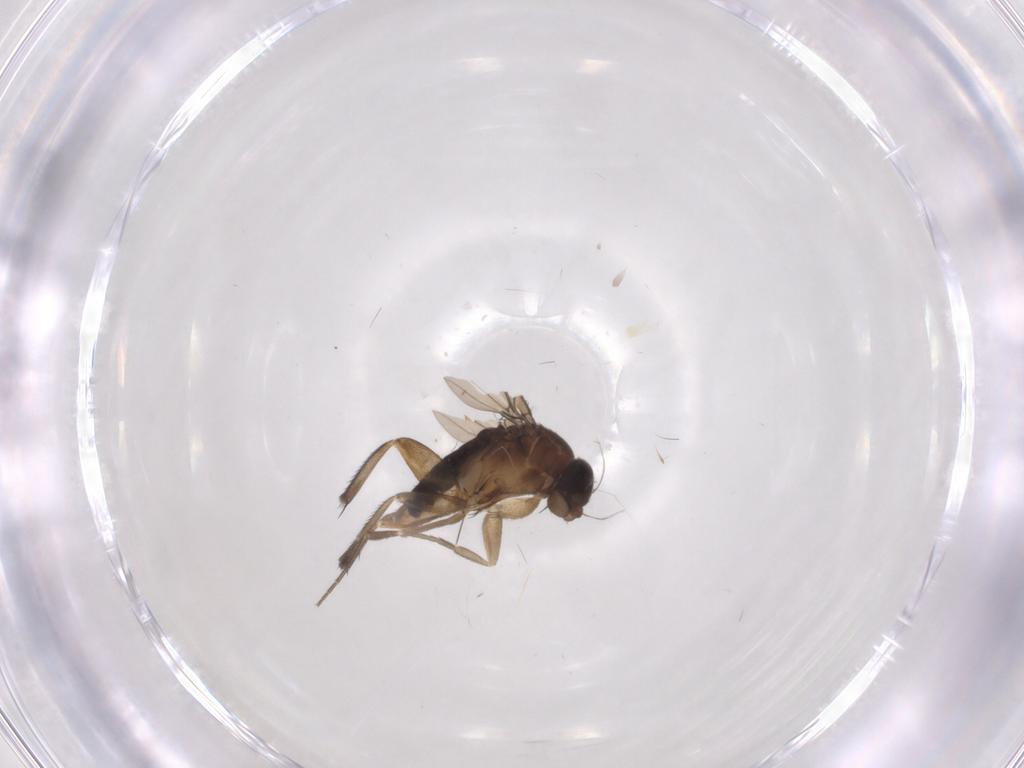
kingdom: Animalia
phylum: Arthropoda
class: Insecta
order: Diptera
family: Phoridae
